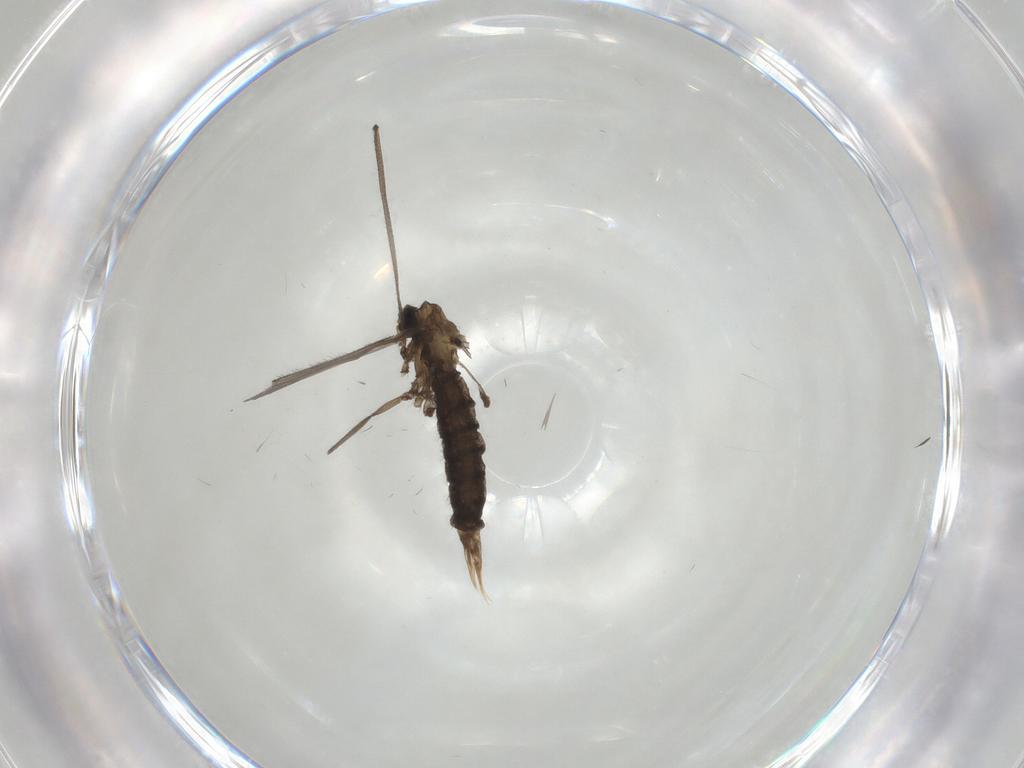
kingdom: Animalia
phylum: Arthropoda
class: Insecta
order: Diptera
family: Limoniidae
